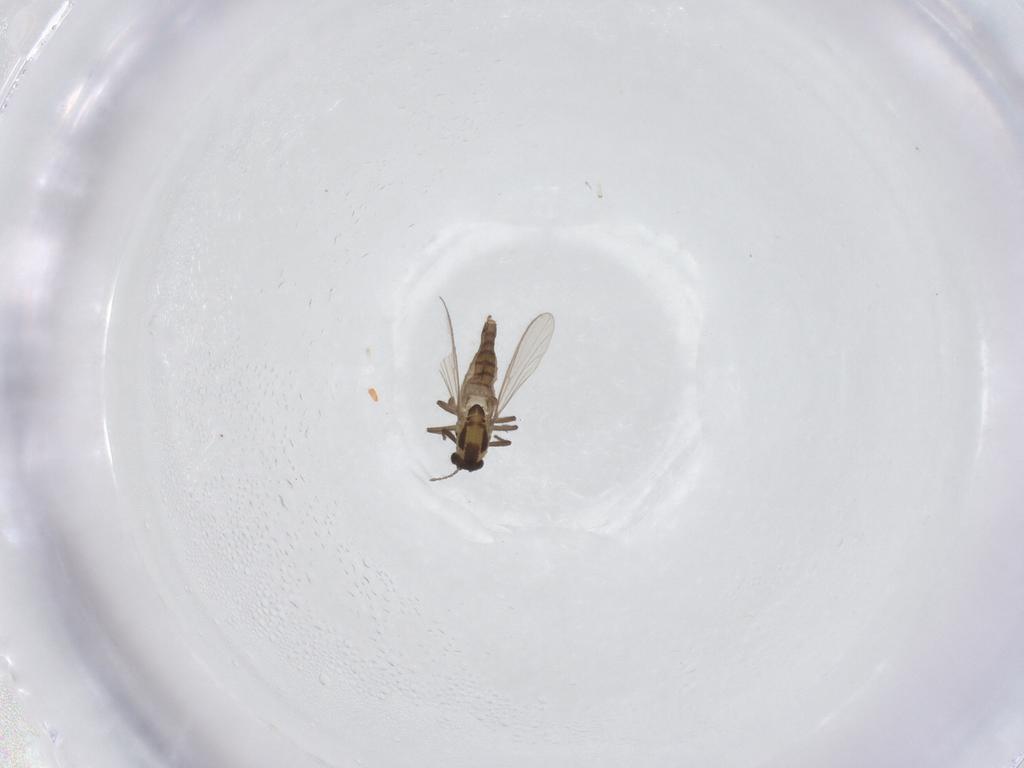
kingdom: Animalia
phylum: Arthropoda
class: Insecta
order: Diptera
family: Chironomidae
